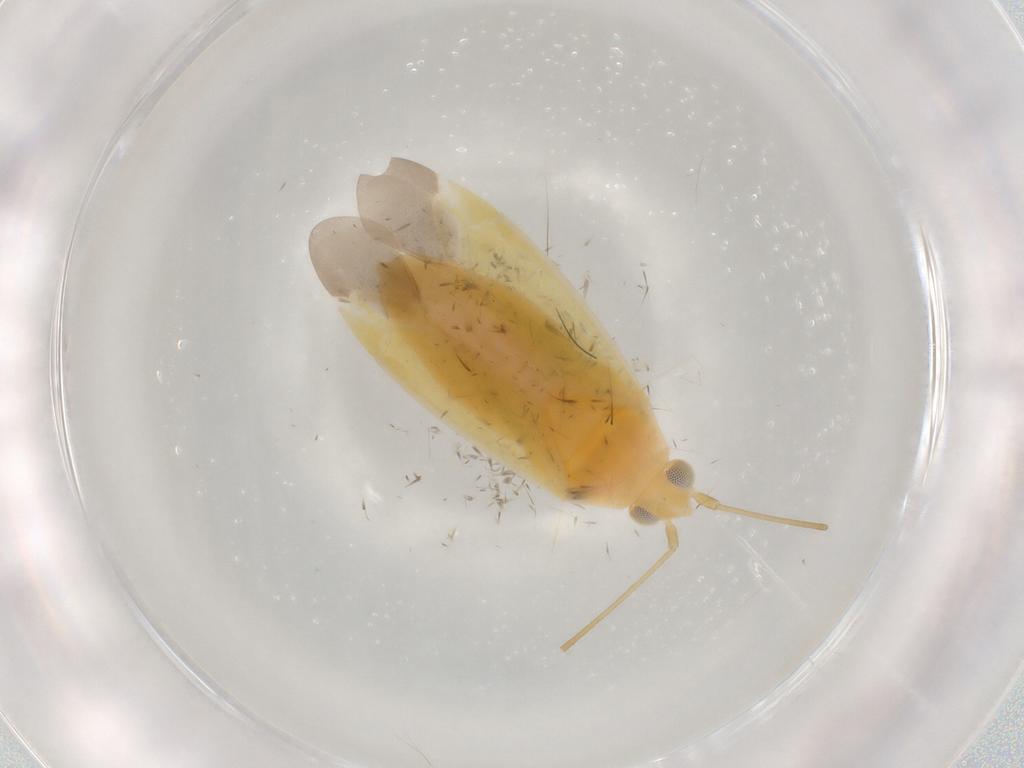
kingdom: Animalia
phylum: Arthropoda
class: Insecta
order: Hemiptera
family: Miridae
